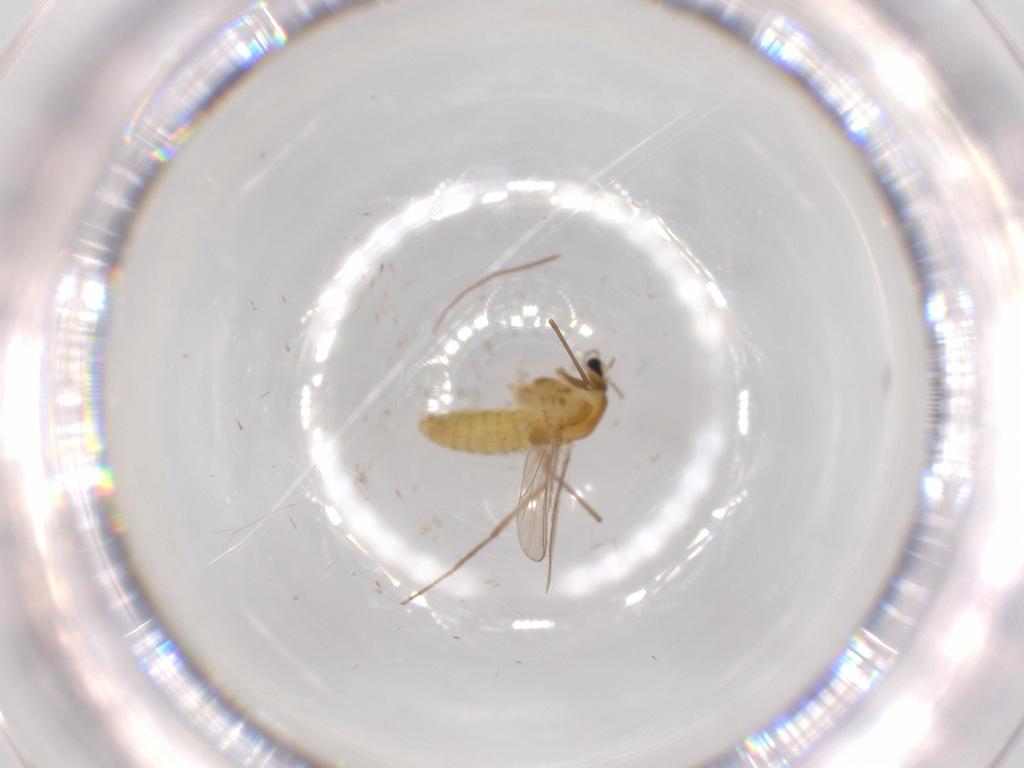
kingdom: Animalia
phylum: Arthropoda
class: Insecta
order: Diptera
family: Chironomidae
